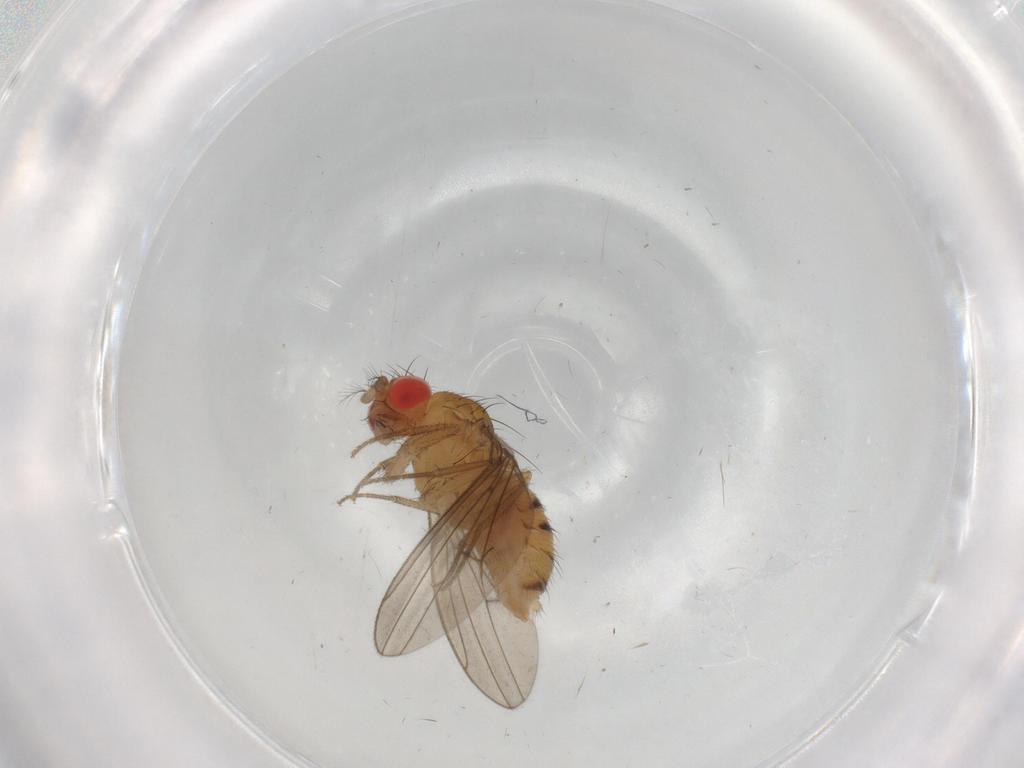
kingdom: Animalia
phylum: Arthropoda
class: Insecta
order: Diptera
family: Drosophilidae
